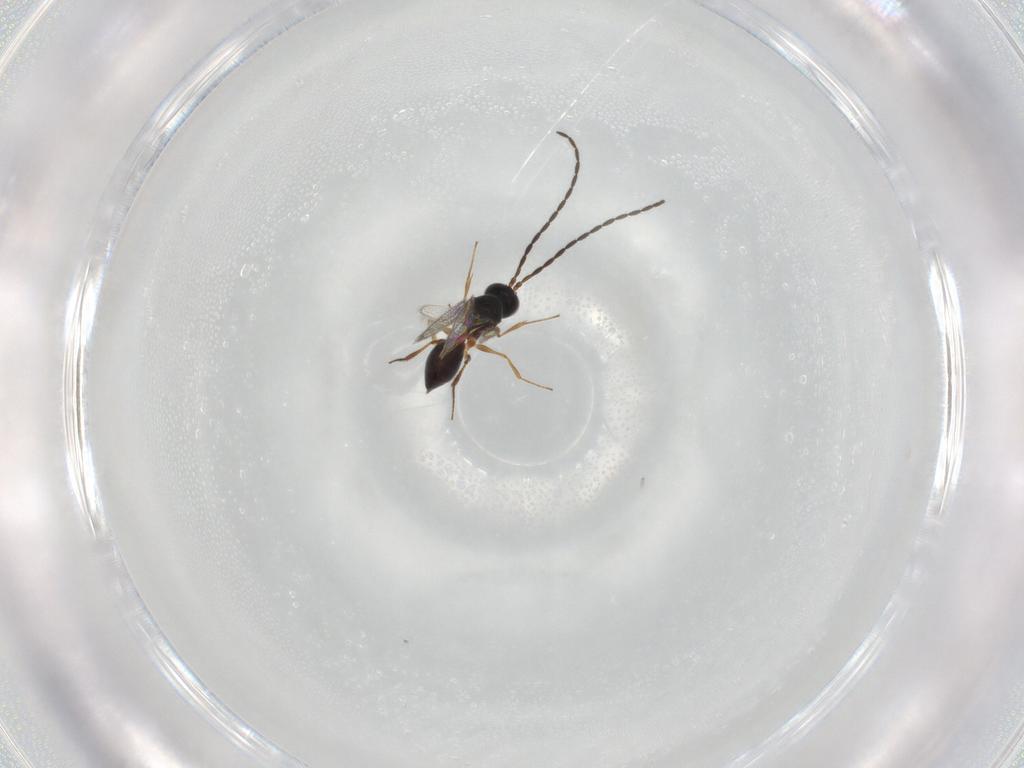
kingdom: Animalia
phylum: Arthropoda
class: Insecta
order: Hymenoptera
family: Figitidae
